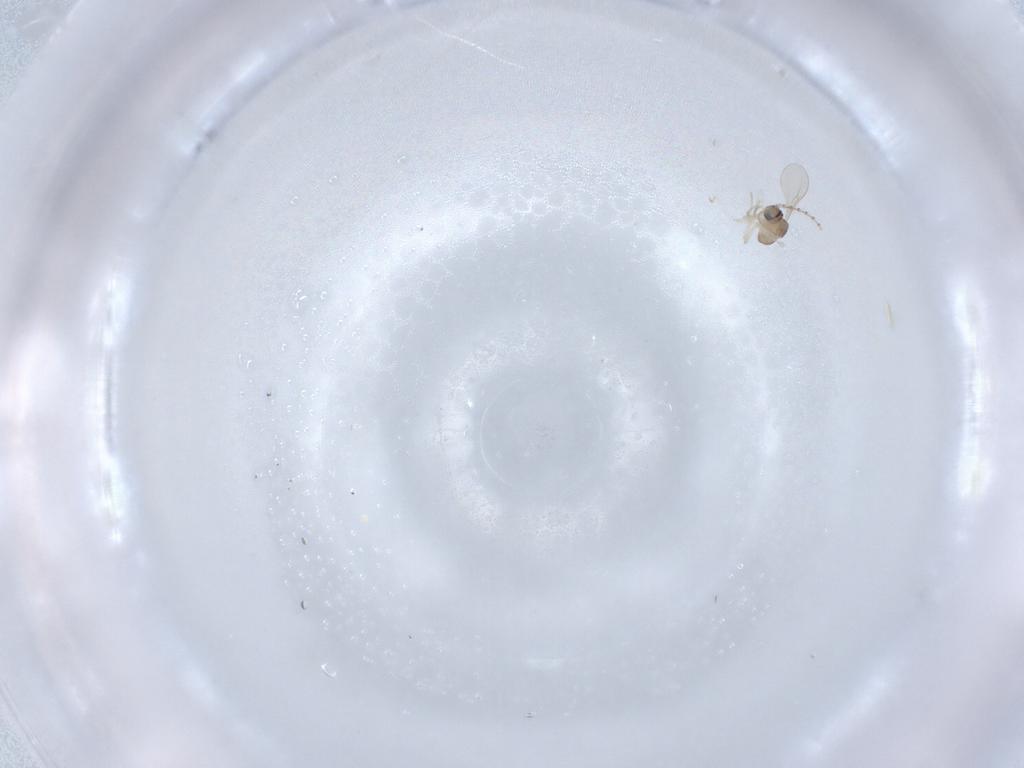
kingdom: Animalia
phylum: Arthropoda
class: Insecta
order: Diptera
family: Cecidomyiidae
